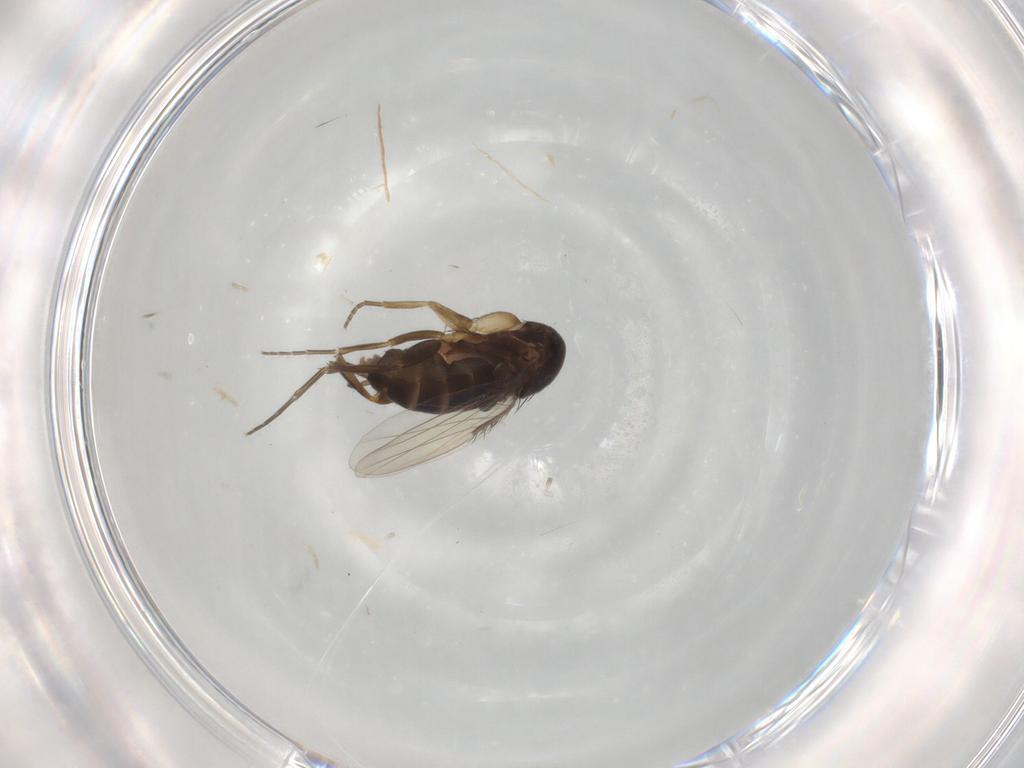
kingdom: Animalia
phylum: Arthropoda
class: Insecta
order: Diptera
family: Phoridae
